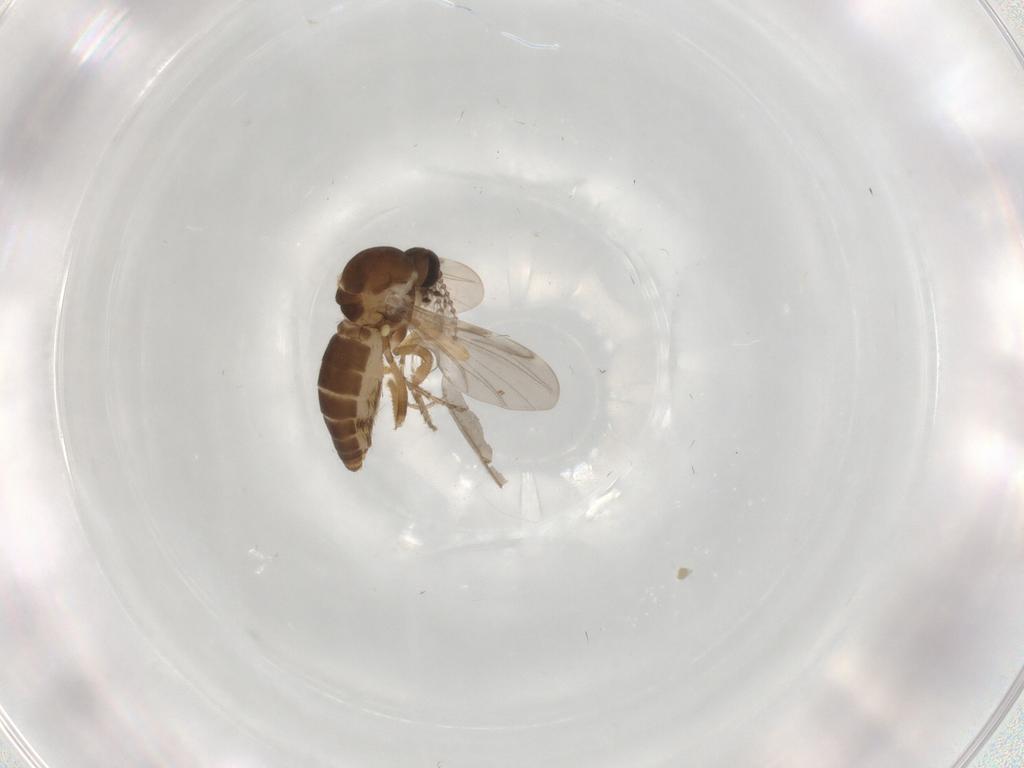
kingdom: Animalia
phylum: Arthropoda
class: Insecta
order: Diptera
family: Phoridae
